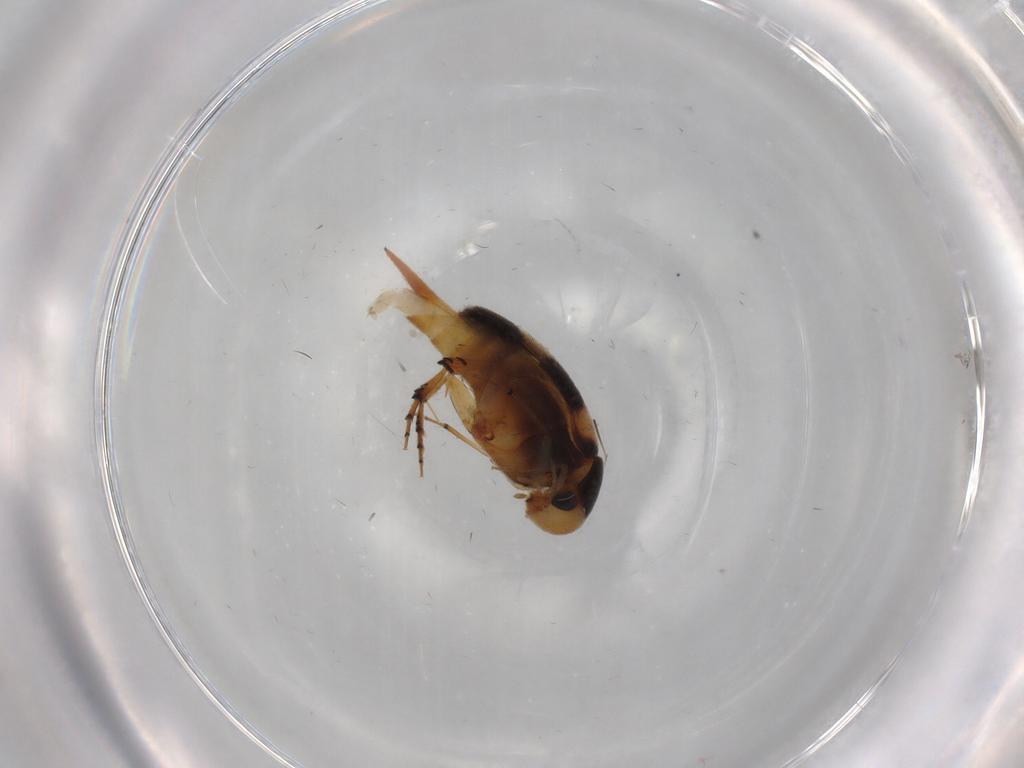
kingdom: Animalia
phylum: Arthropoda
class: Insecta
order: Coleoptera
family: Mordellidae
